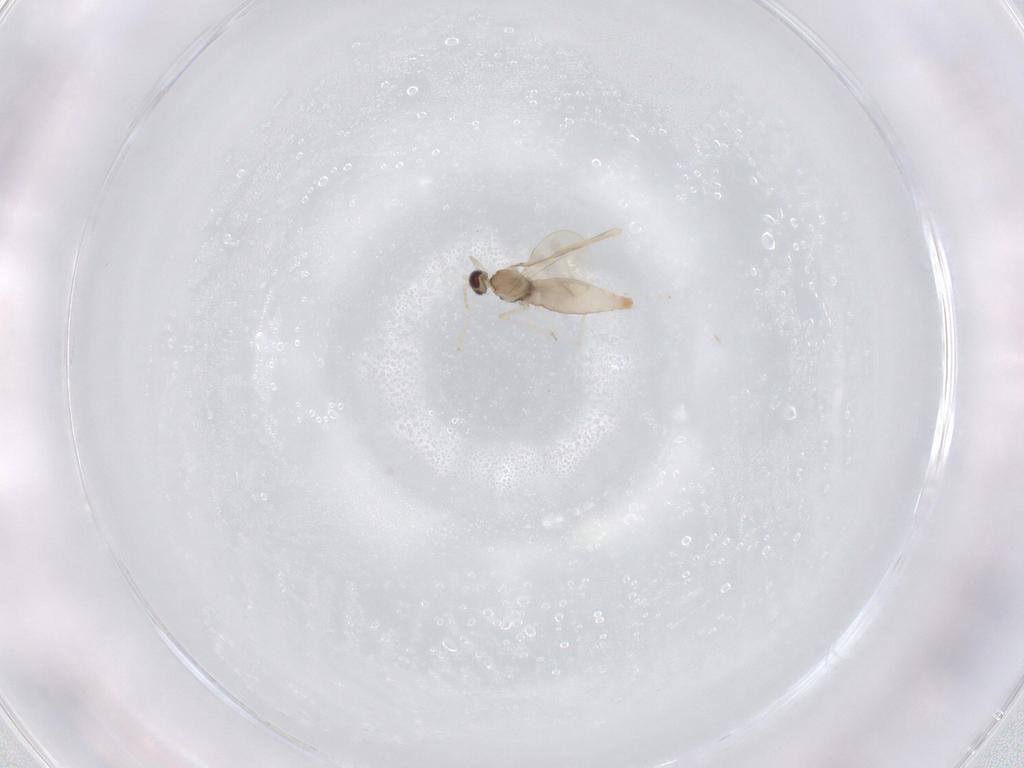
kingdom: Animalia
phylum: Arthropoda
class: Insecta
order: Diptera
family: Cecidomyiidae
